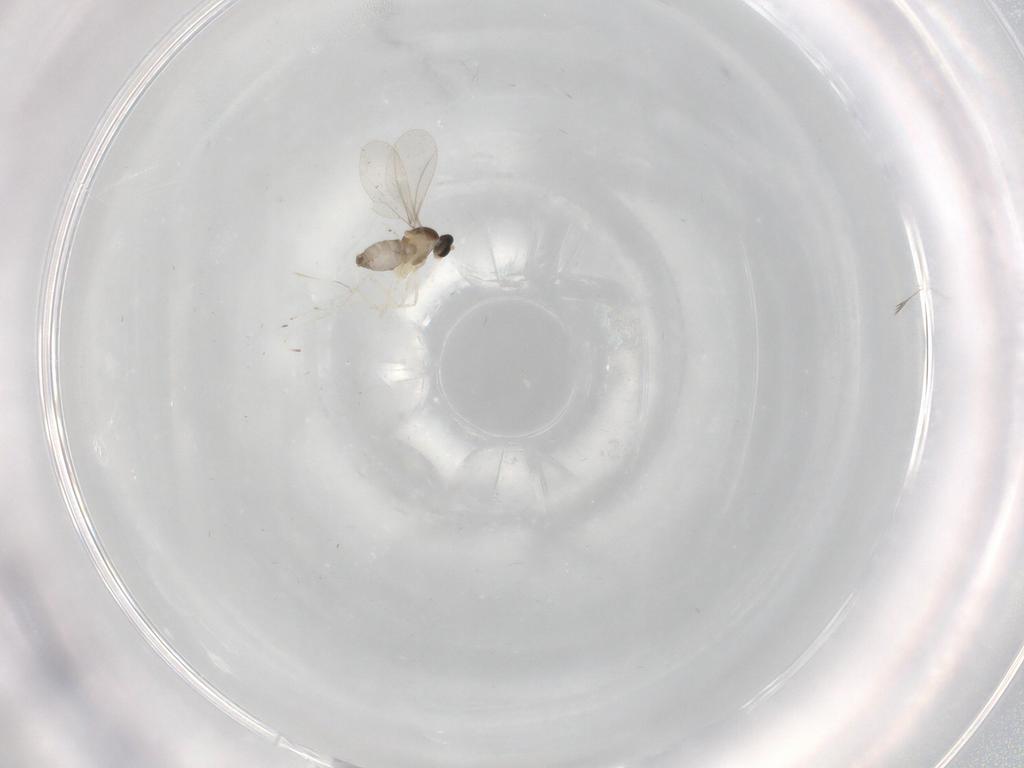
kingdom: Animalia
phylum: Arthropoda
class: Insecta
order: Diptera
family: Cecidomyiidae
